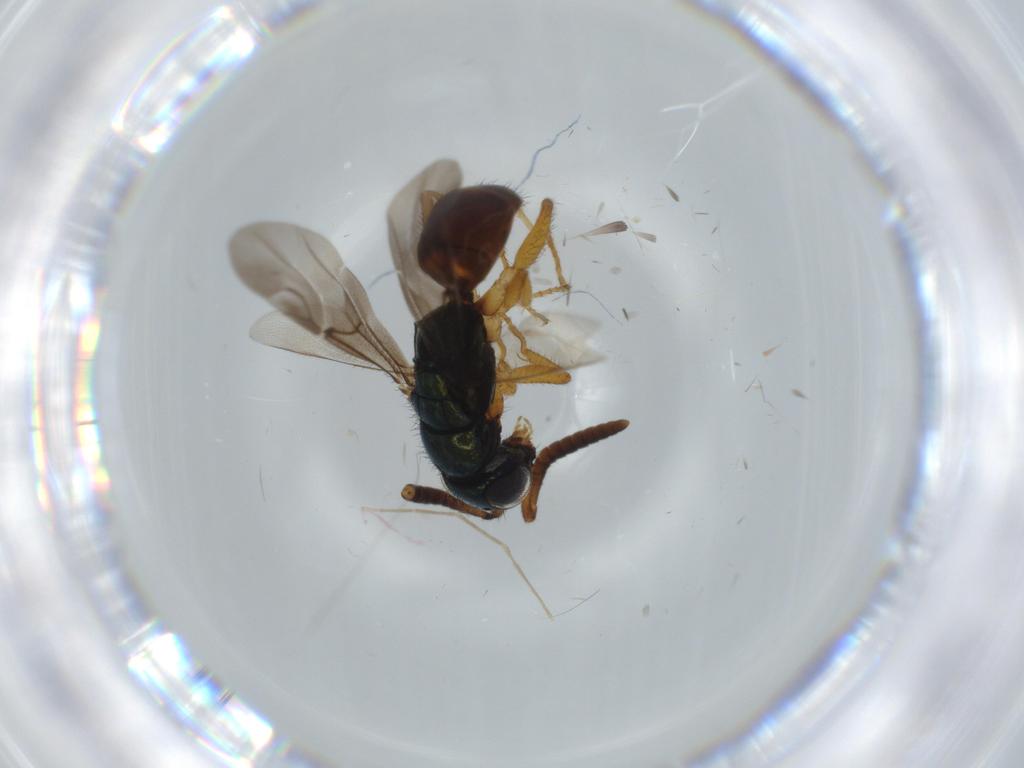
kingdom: Animalia
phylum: Arthropoda
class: Insecta
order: Hymenoptera
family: Chrysididae
